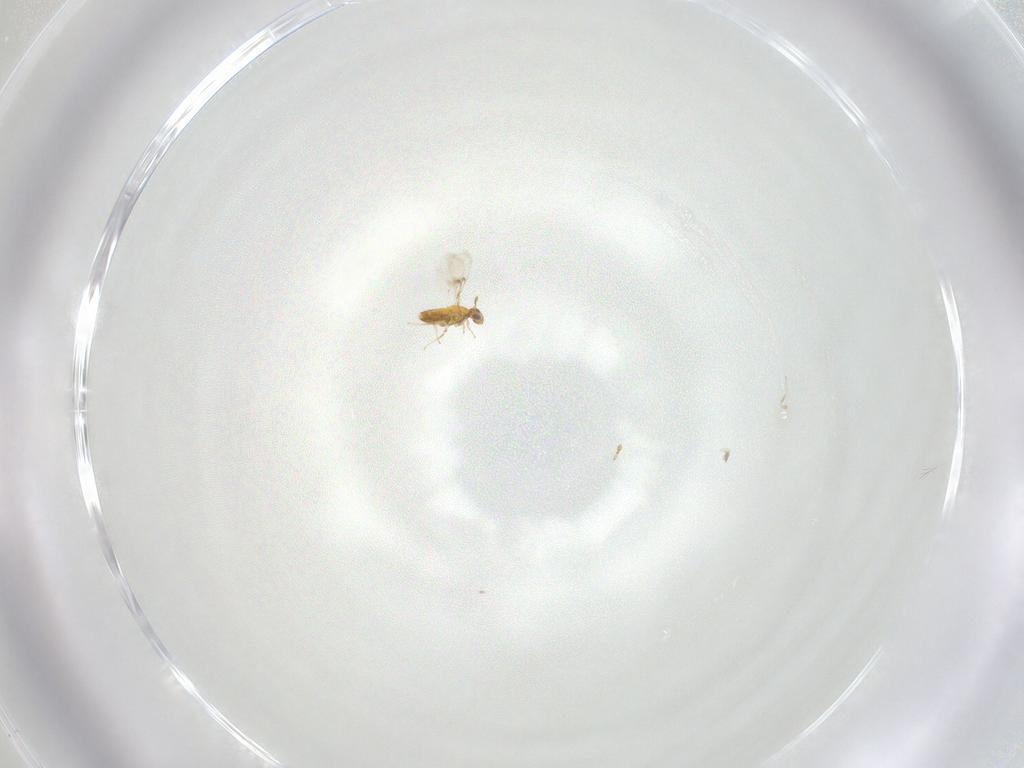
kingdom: Animalia
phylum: Arthropoda
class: Insecta
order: Hymenoptera
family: Trichogrammatidae
